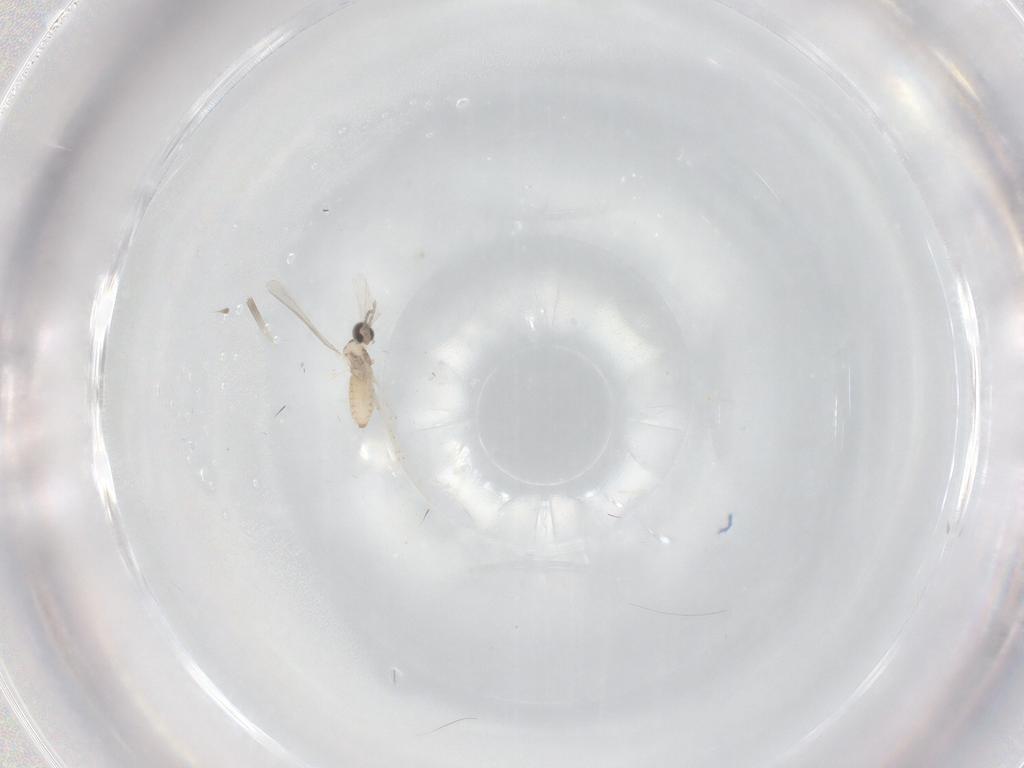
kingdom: Animalia
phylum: Arthropoda
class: Insecta
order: Diptera
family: Cecidomyiidae
